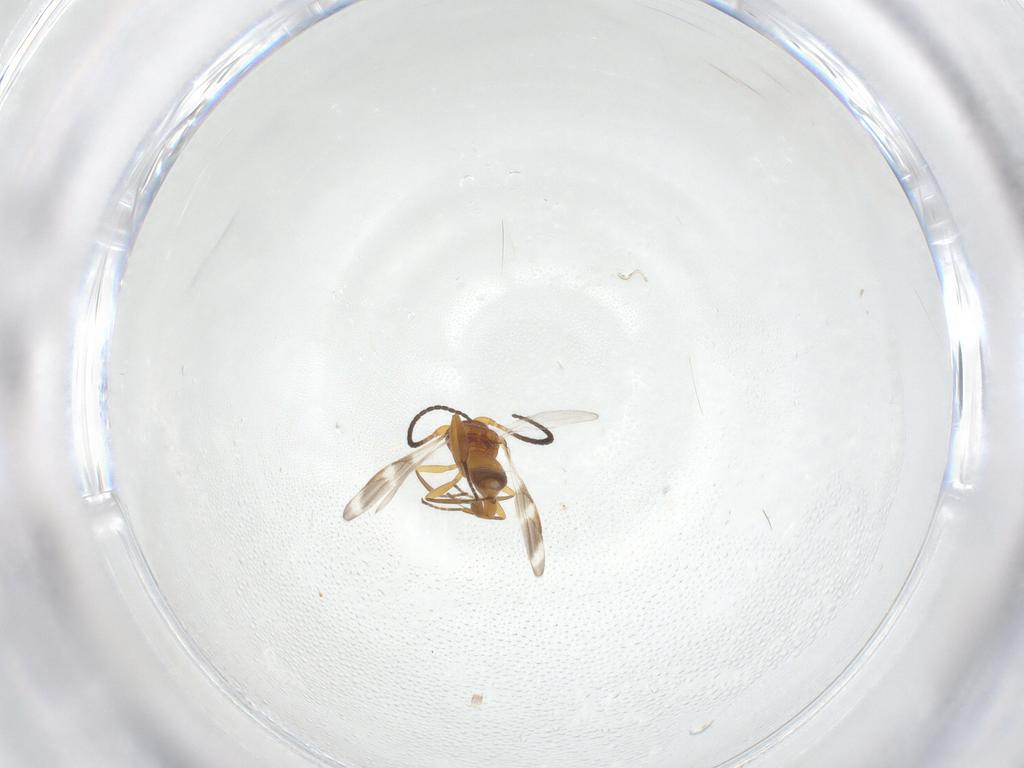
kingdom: Animalia
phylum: Arthropoda
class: Insecta
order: Hymenoptera
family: Braconidae
